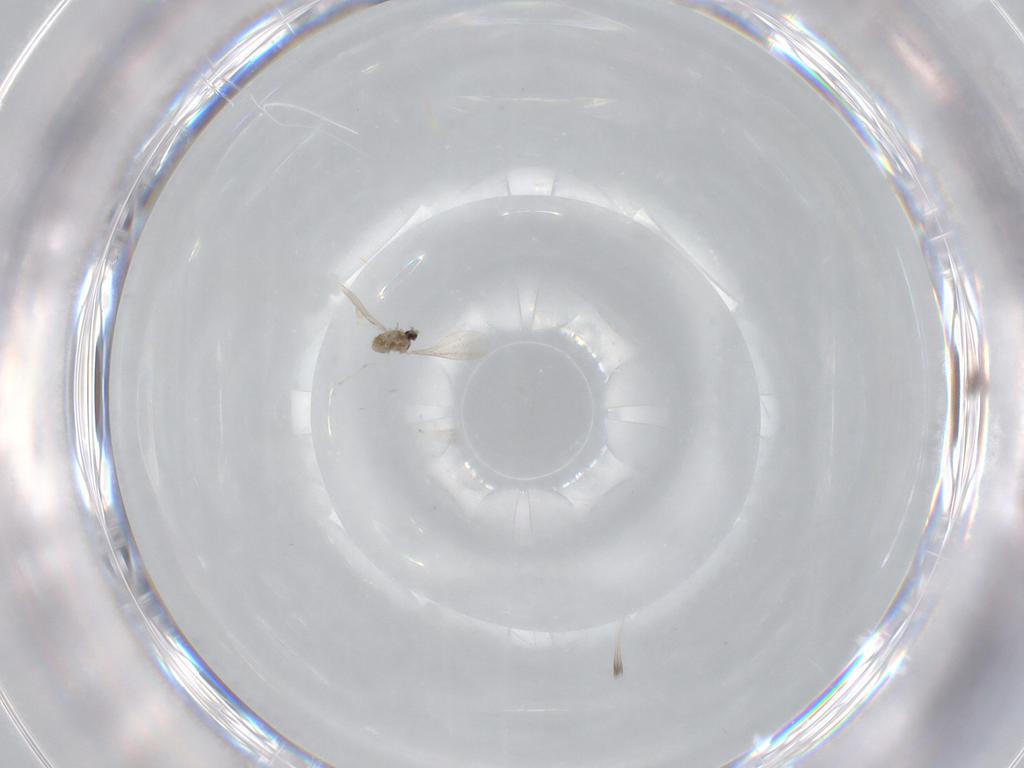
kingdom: Animalia
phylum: Arthropoda
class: Insecta
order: Diptera
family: Cecidomyiidae
